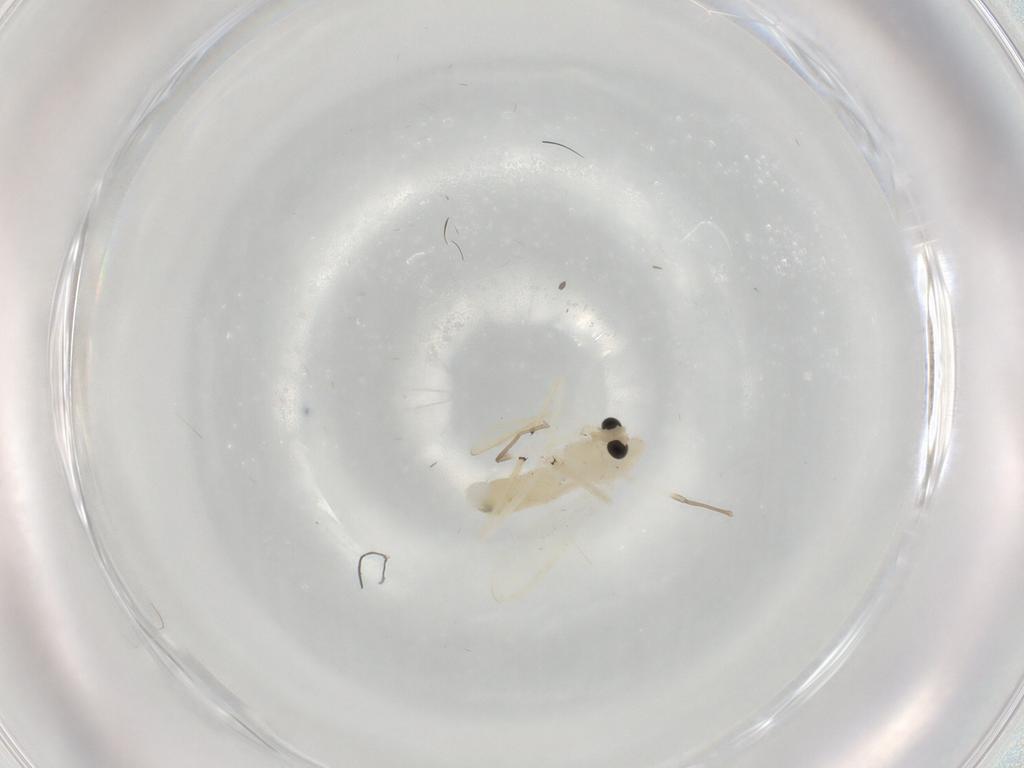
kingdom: Animalia
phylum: Arthropoda
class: Insecta
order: Diptera
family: Chironomidae
